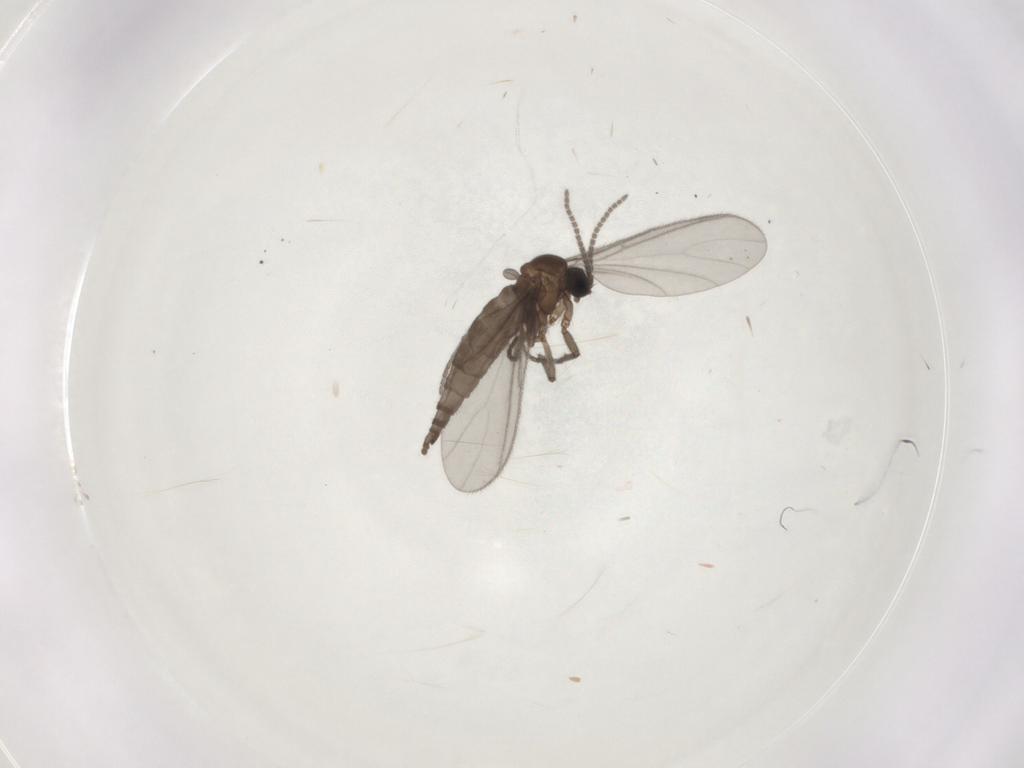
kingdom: Animalia
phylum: Arthropoda
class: Insecta
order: Diptera
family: Sciaridae
